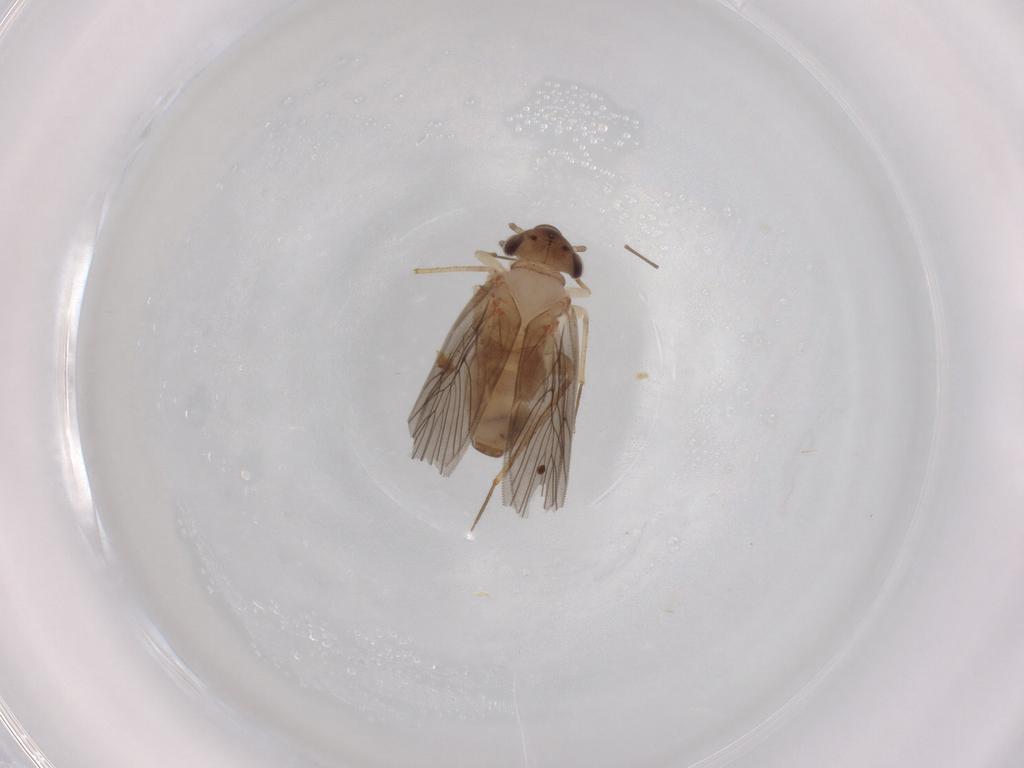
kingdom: Animalia
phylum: Arthropoda
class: Insecta
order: Psocodea
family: Lepidopsocidae
